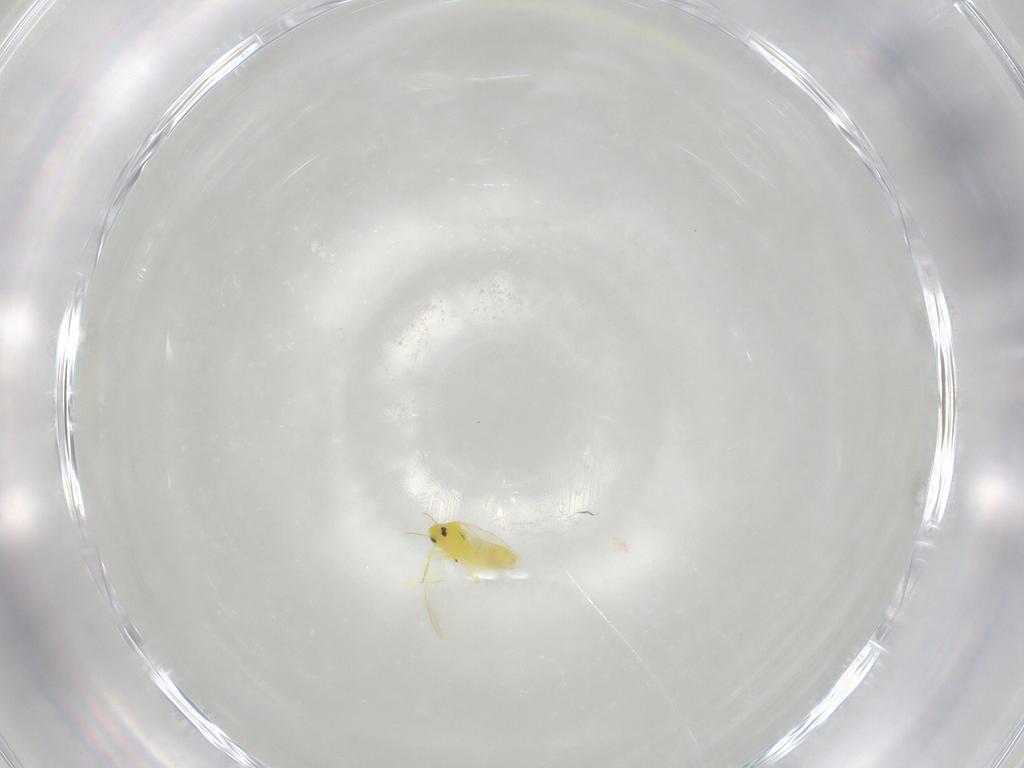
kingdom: Animalia
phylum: Arthropoda
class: Insecta
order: Hemiptera
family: Aleyrodidae
